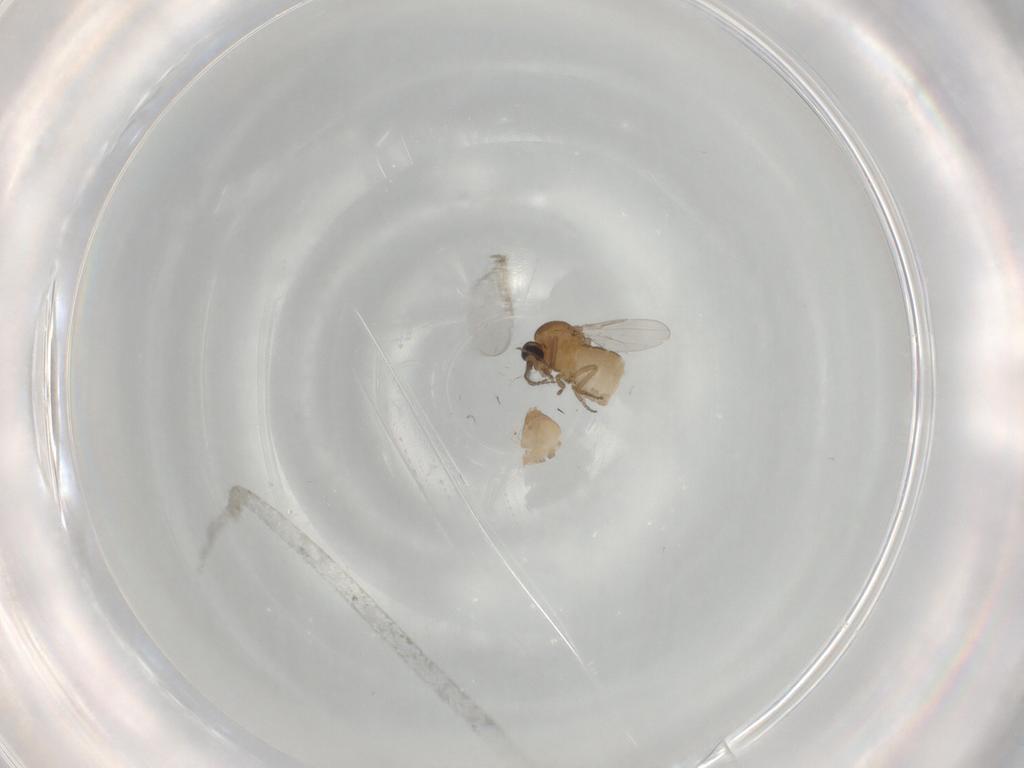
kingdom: Animalia
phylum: Arthropoda
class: Insecta
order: Diptera
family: Ceratopogonidae
